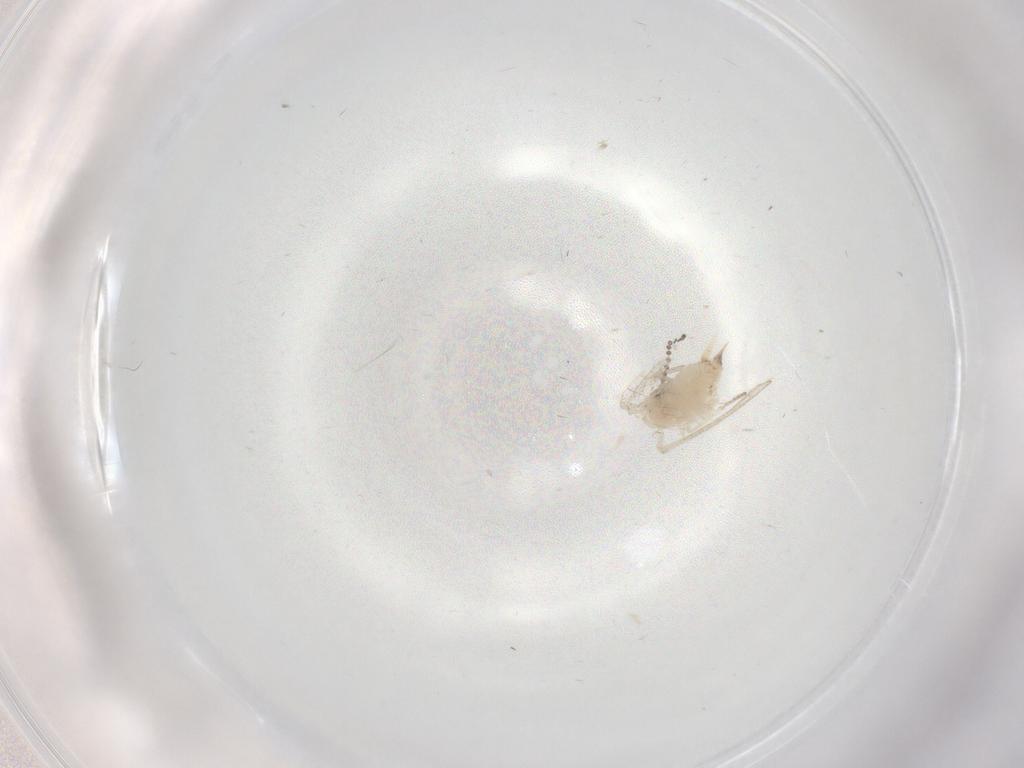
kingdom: Animalia
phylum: Arthropoda
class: Insecta
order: Diptera
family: Psychodidae
